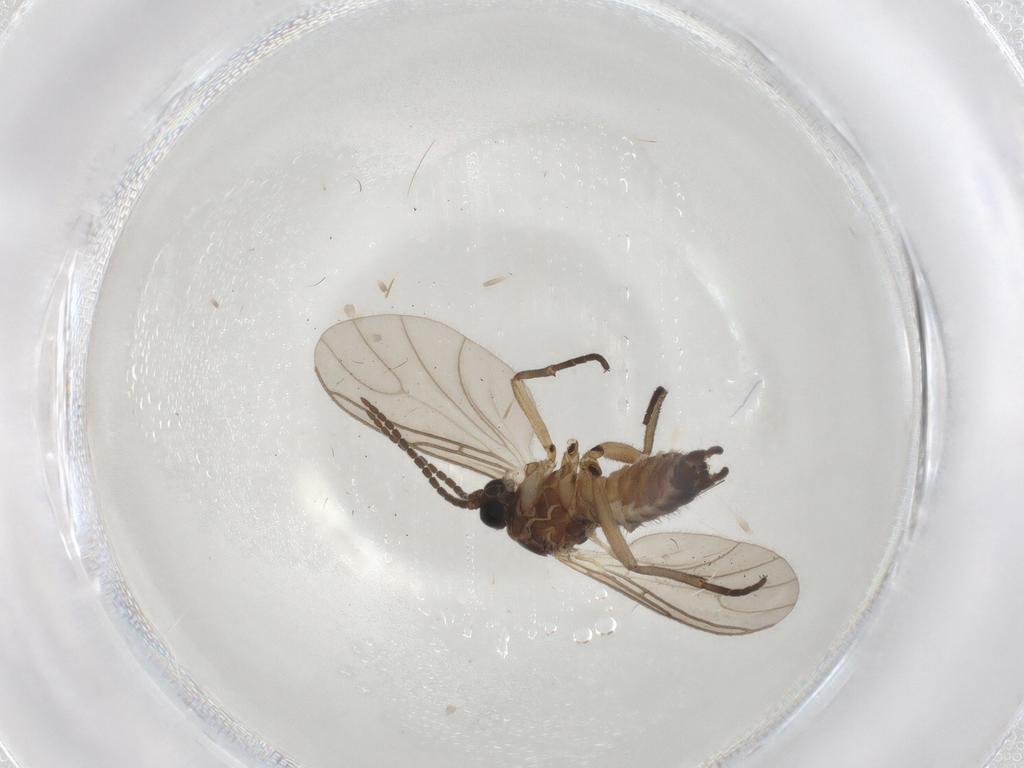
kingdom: Animalia
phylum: Arthropoda
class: Insecta
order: Diptera
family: Sciaridae
